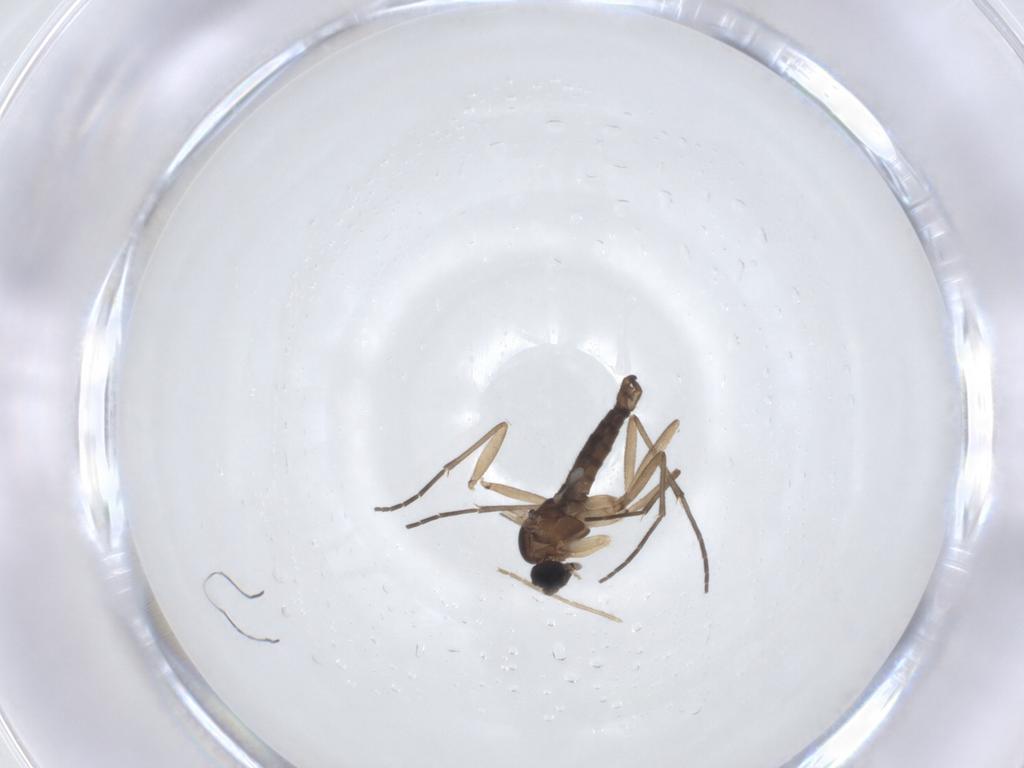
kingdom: Animalia
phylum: Arthropoda
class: Insecta
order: Diptera
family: Sciaridae
